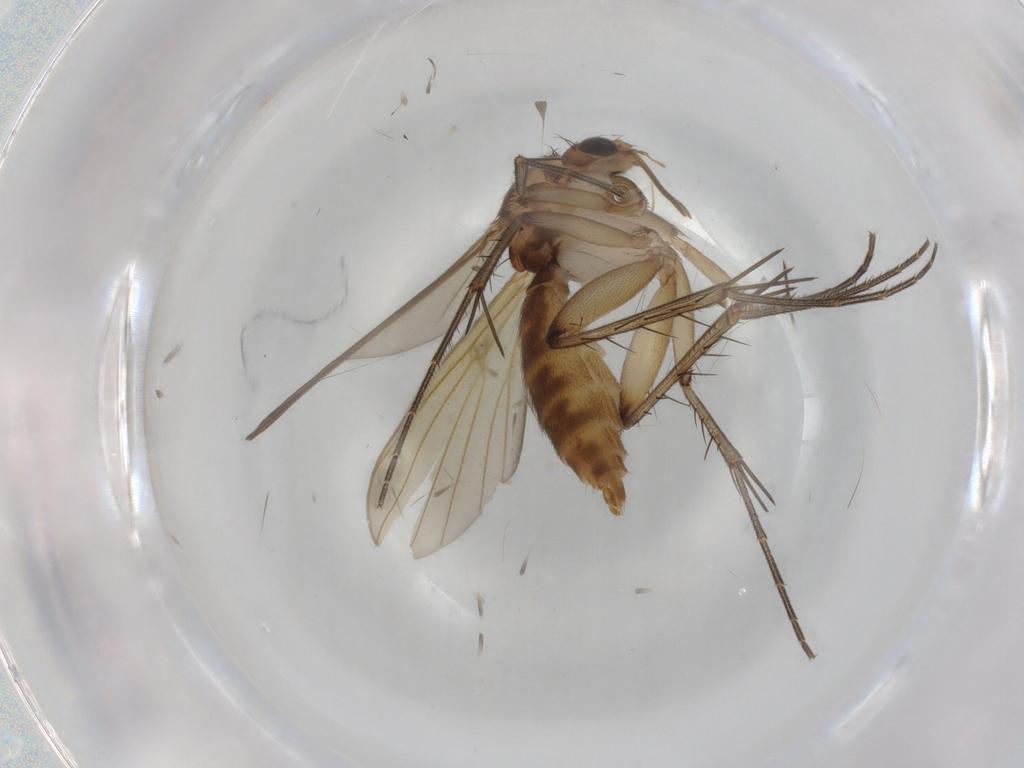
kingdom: Animalia
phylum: Arthropoda
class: Insecta
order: Diptera
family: Mycetophilidae
